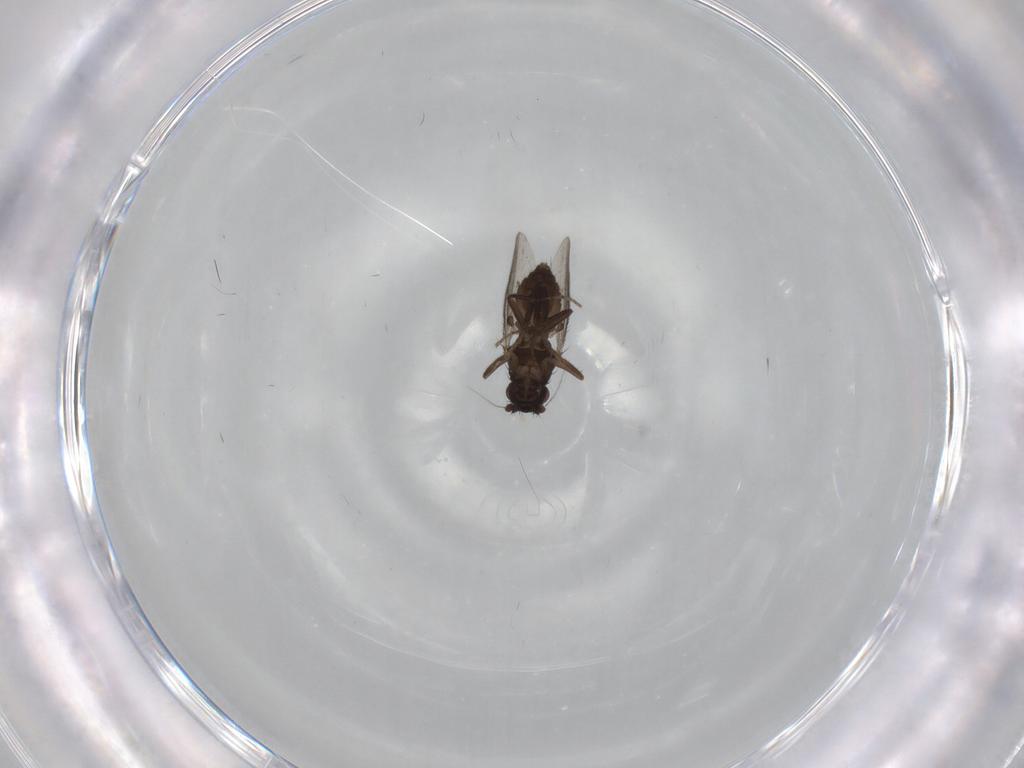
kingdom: Animalia
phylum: Arthropoda
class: Insecta
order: Diptera
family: Sphaeroceridae
